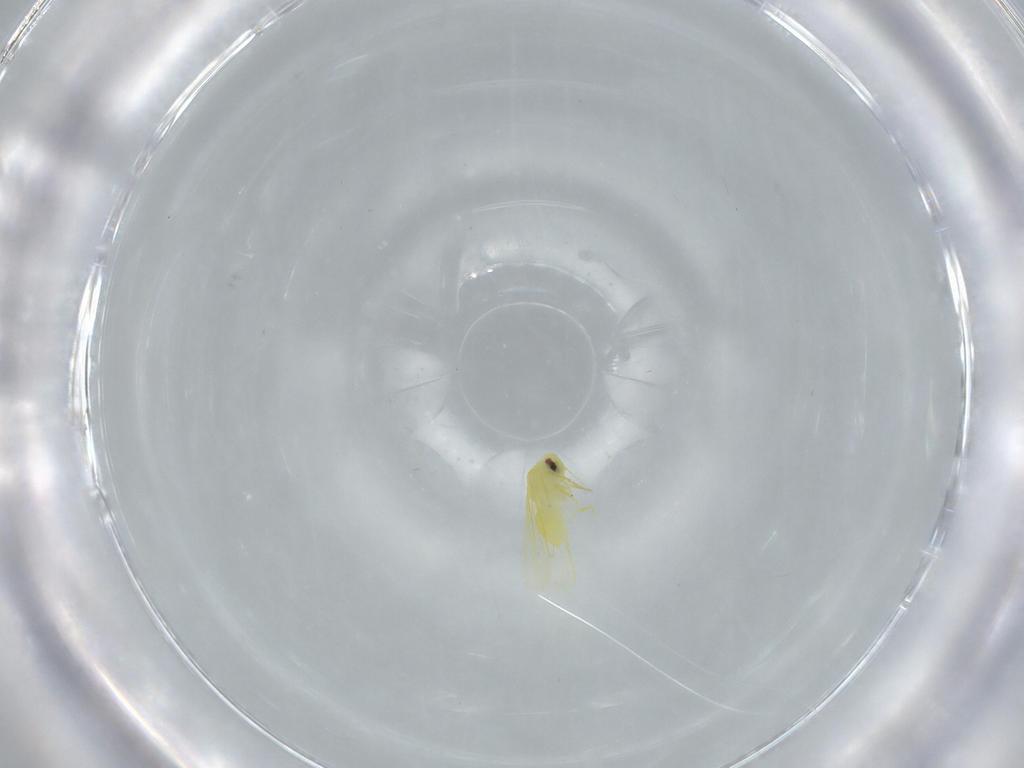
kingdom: Animalia
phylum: Arthropoda
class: Insecta
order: Hemiptera
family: Aleyrodidae
